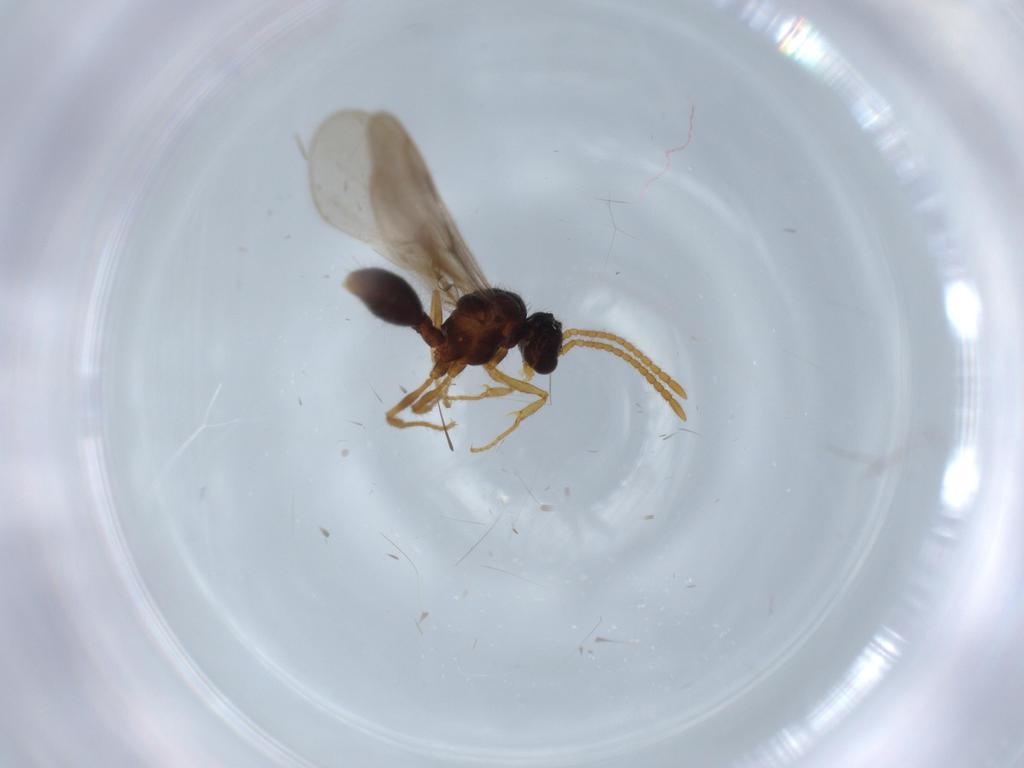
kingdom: Animalia
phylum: Arthropoda
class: Insecta
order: Hymenoptera
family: Formicidae
